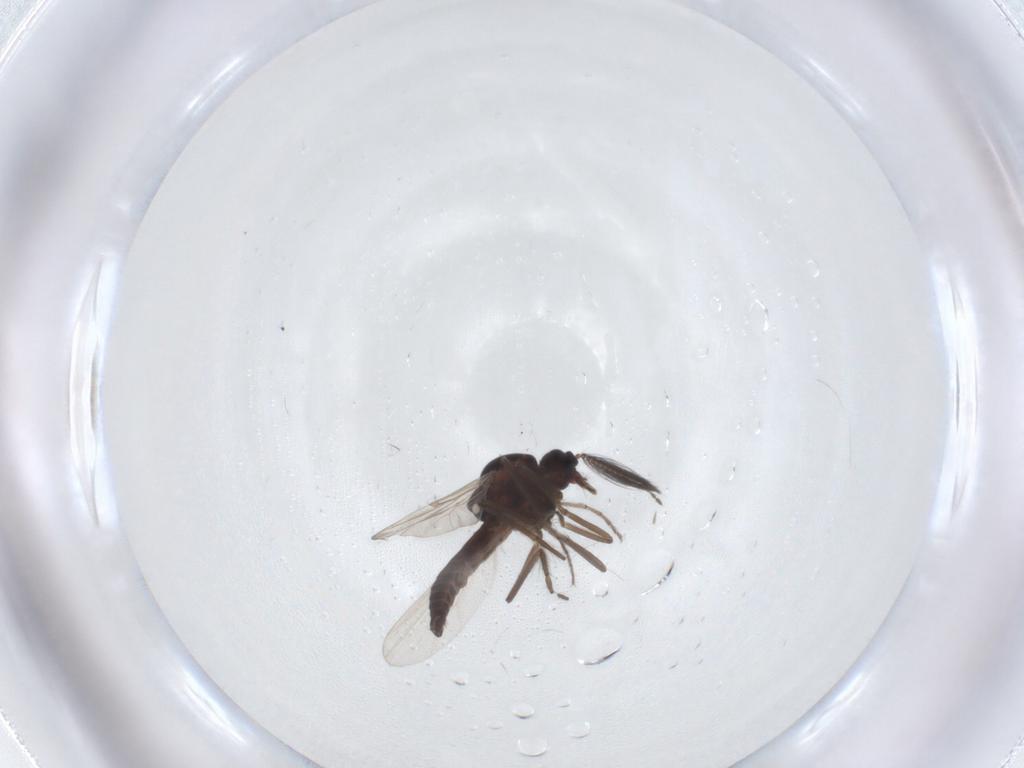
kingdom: Animalia
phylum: Arthropoda
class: Insecta
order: Diptera
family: Ceratopogonidae
